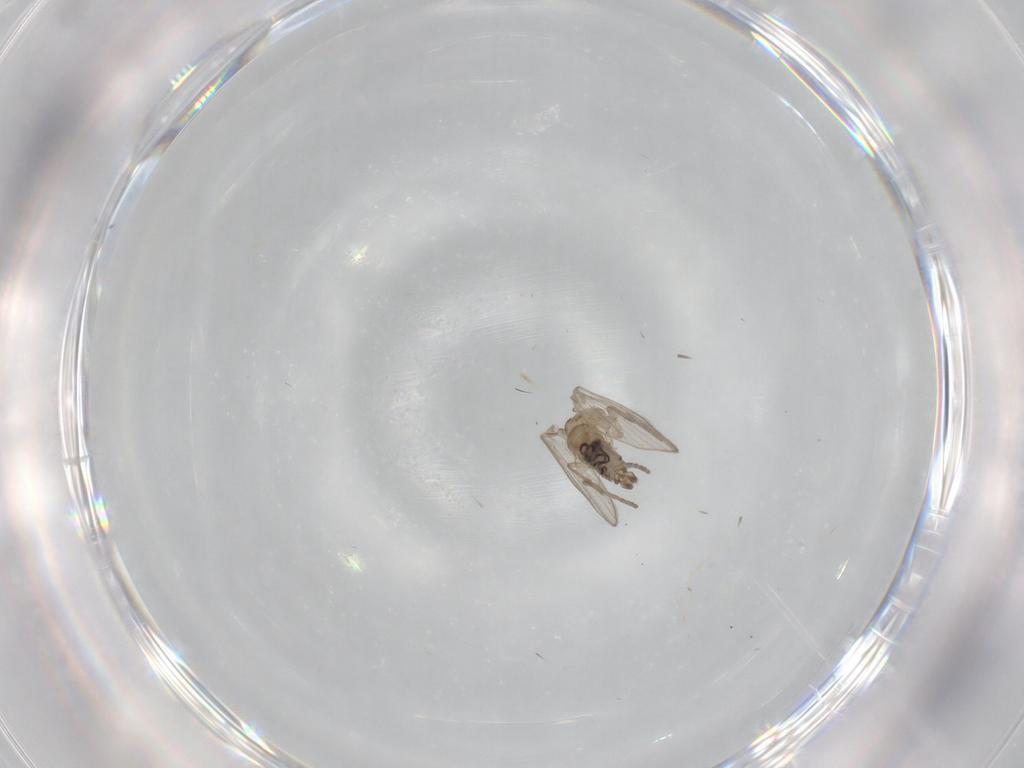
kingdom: Animalia
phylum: Arthropoda
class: Insecta
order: Diptera
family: Psychodidae
